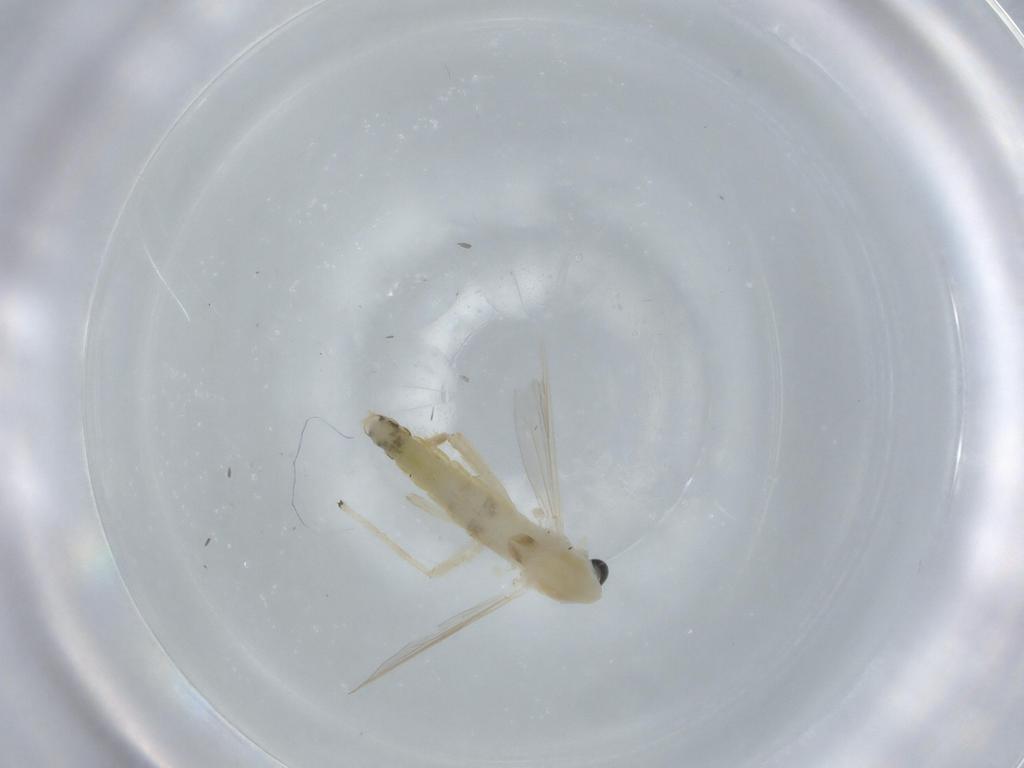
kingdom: Animalia
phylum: Arthropoda
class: Insecta
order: Diptera
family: Chironomidae
